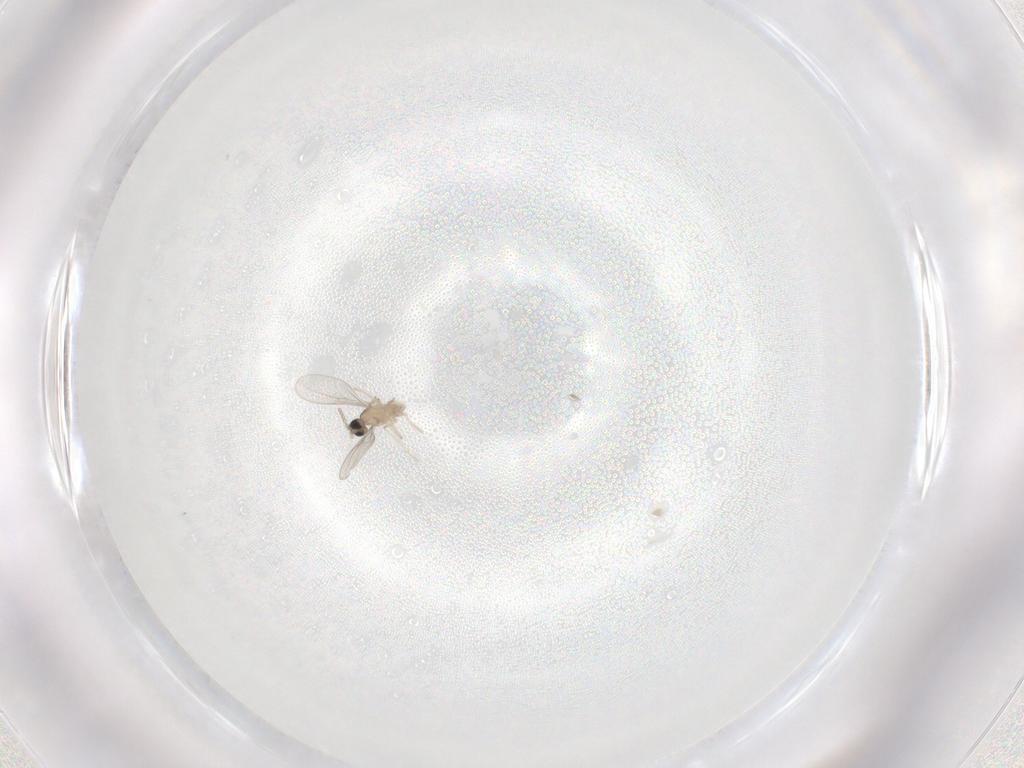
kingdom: Animalia
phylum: Arthropoda
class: Insecta
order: Diptera
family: Cecidomyiidae
